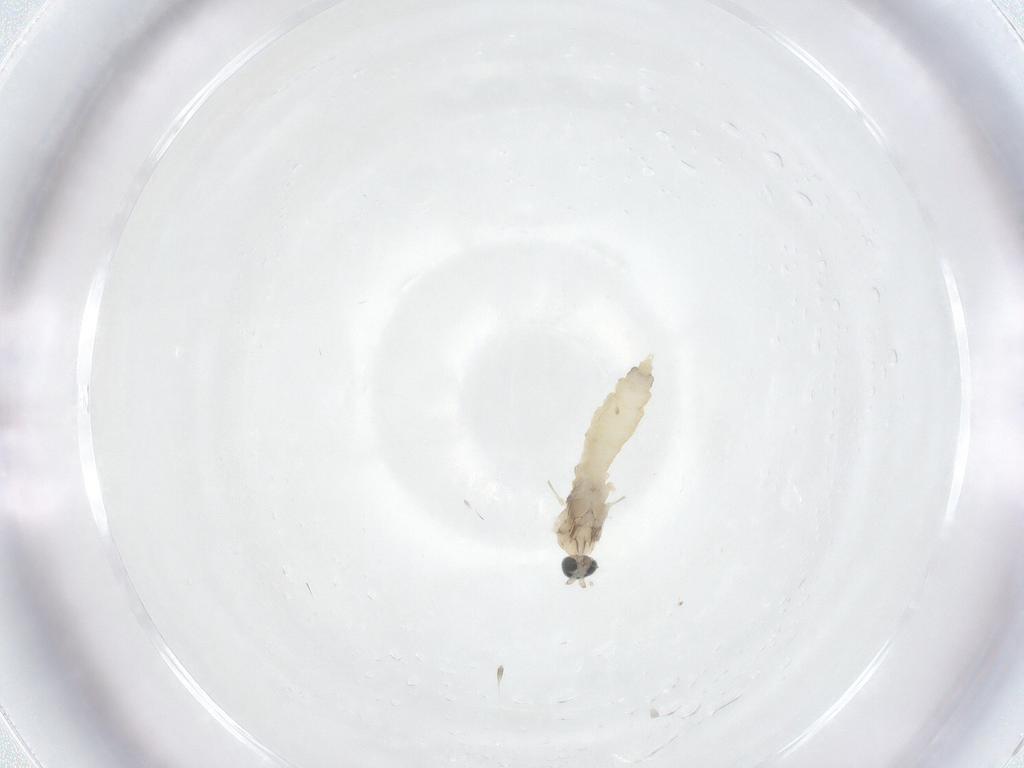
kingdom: Animalia
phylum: Arthropoda
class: Insecta
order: Diptera
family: Cecidomyiidae
